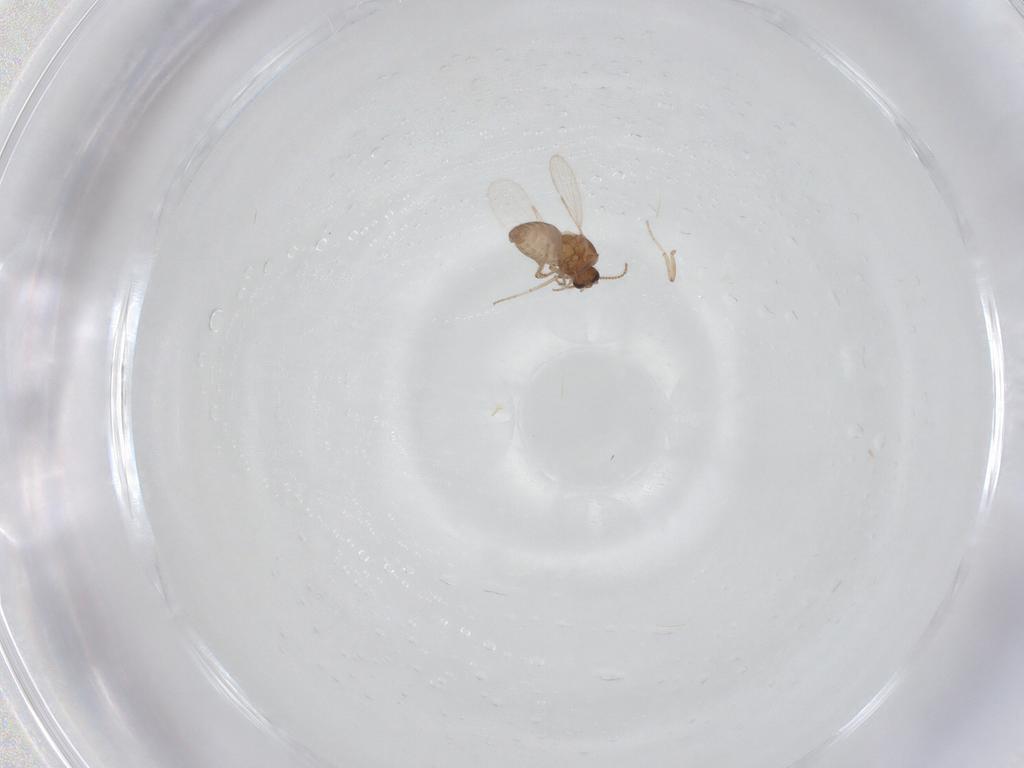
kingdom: Animalia
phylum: Arthropoda
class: Insecta
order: Diptera
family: Ceratopogonidae
